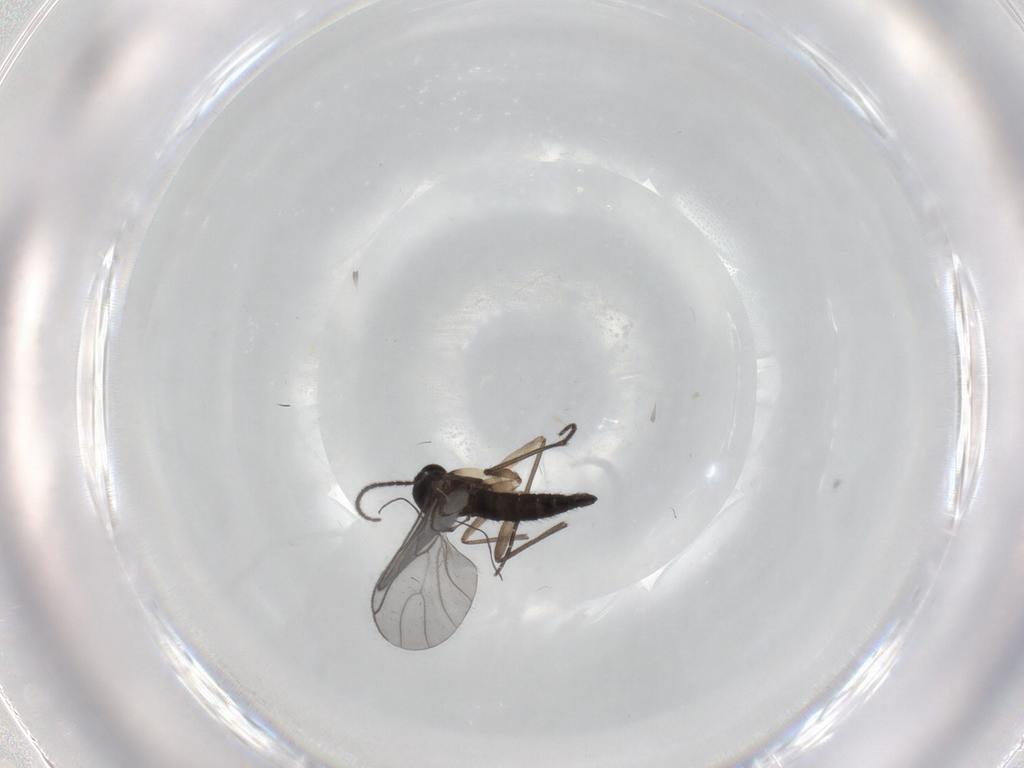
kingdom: Animalia
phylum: Arthropoda
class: Insecta
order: Diptera
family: Sciaridae
